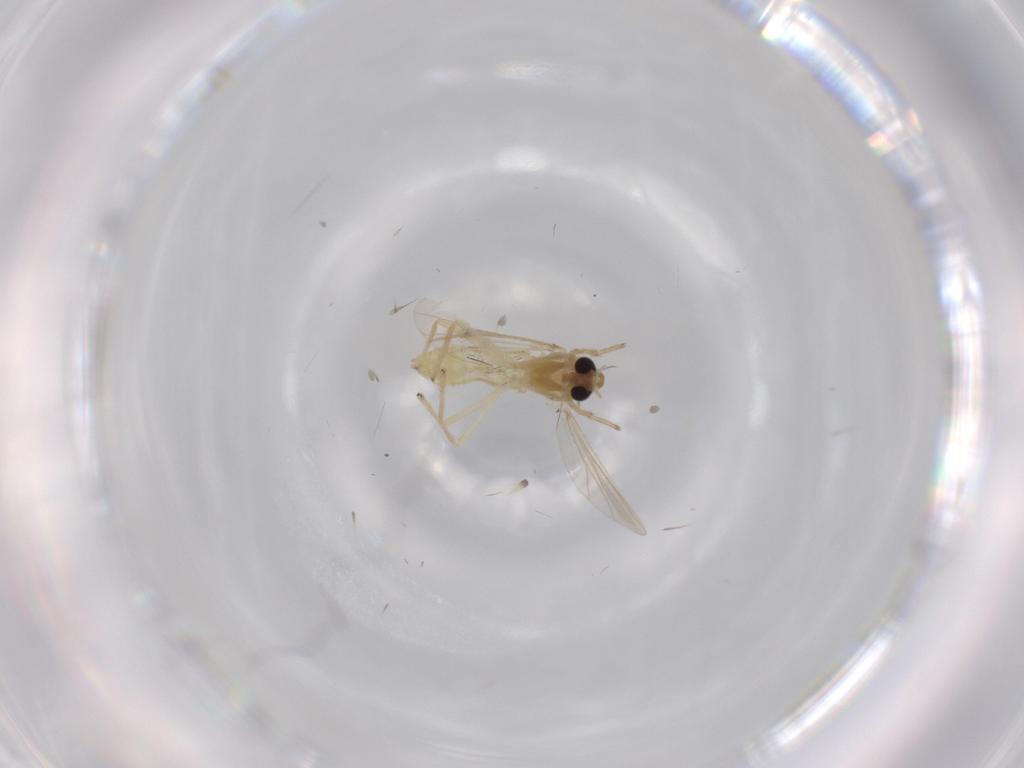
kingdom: Animalia
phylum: Arthropoda
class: Insecta
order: Diptera
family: Chironomidae
